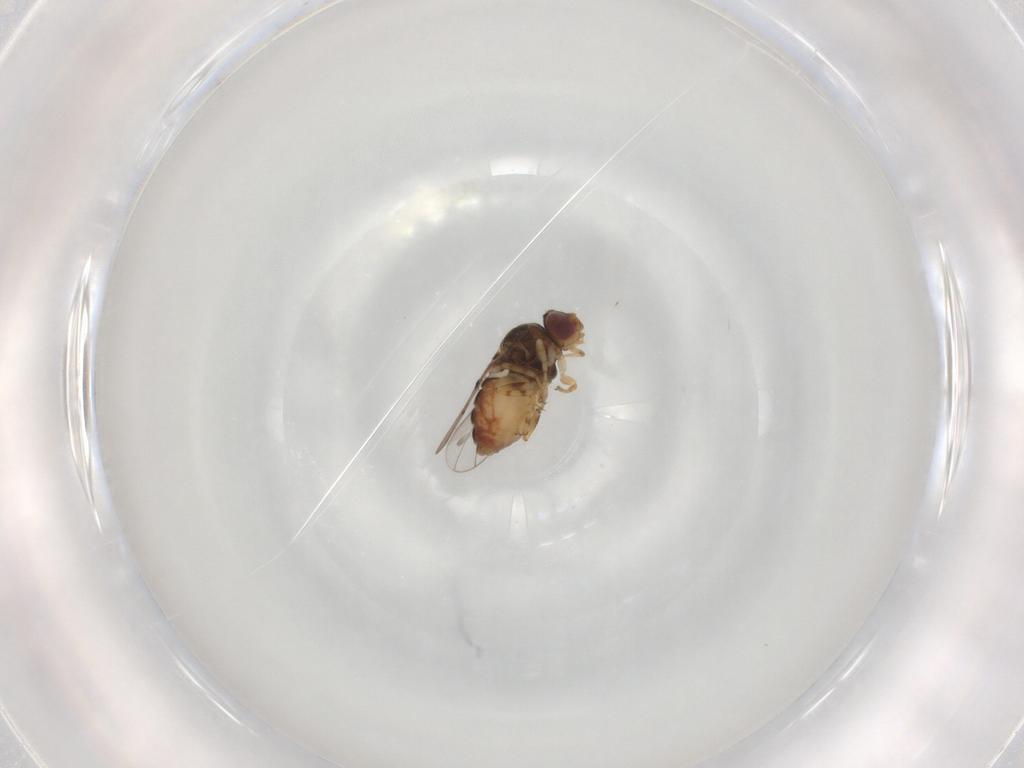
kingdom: Animalia
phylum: Arthropoda
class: Insecta
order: Diptera
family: Chloropidae
